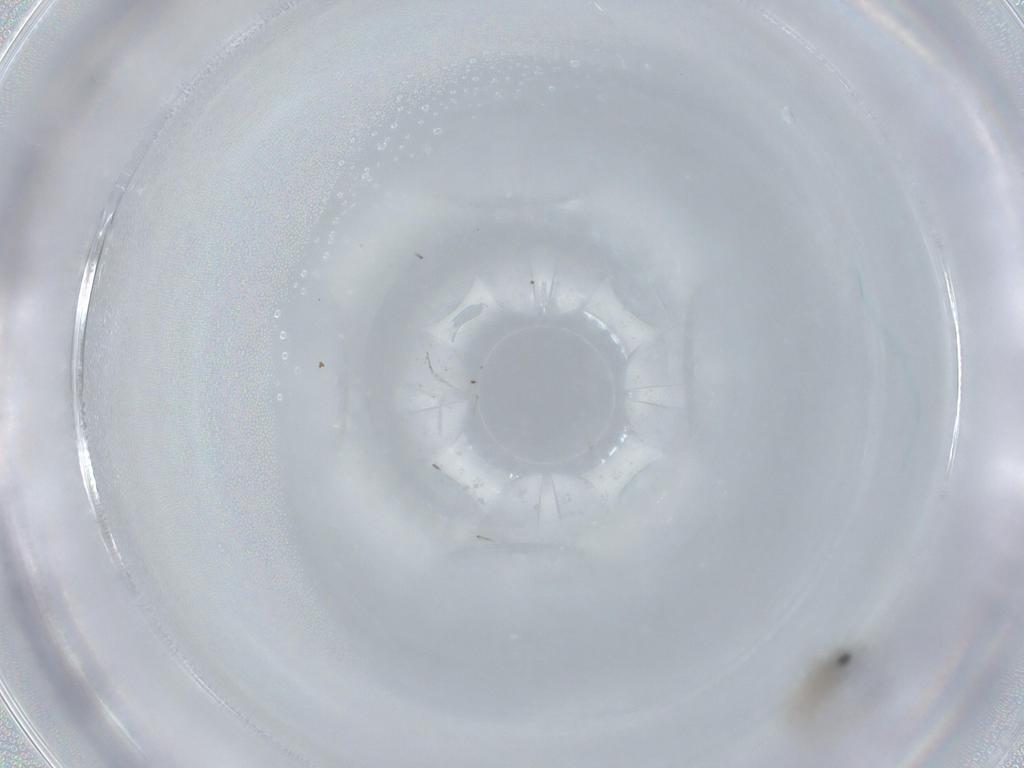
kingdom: Animalia
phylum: Arthropoda
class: Insecta
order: Diptera
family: Cecidomyiidae
